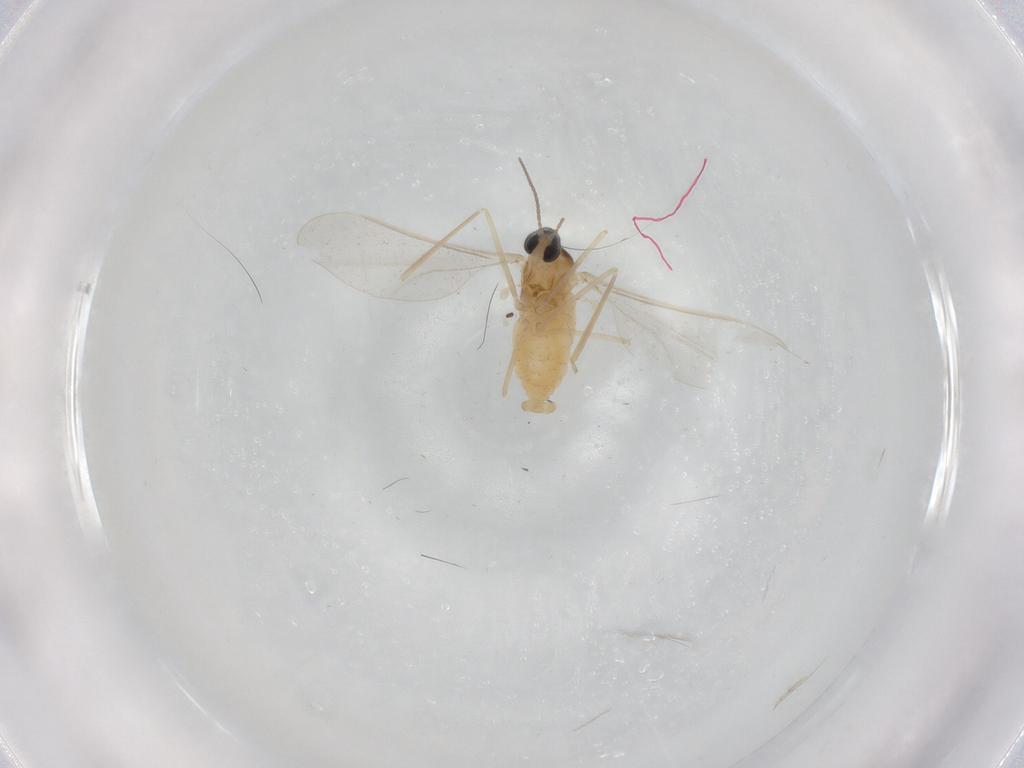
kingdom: Animalia
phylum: Arthropoda
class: Insecta
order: Diptera
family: Cecidomyiidae
